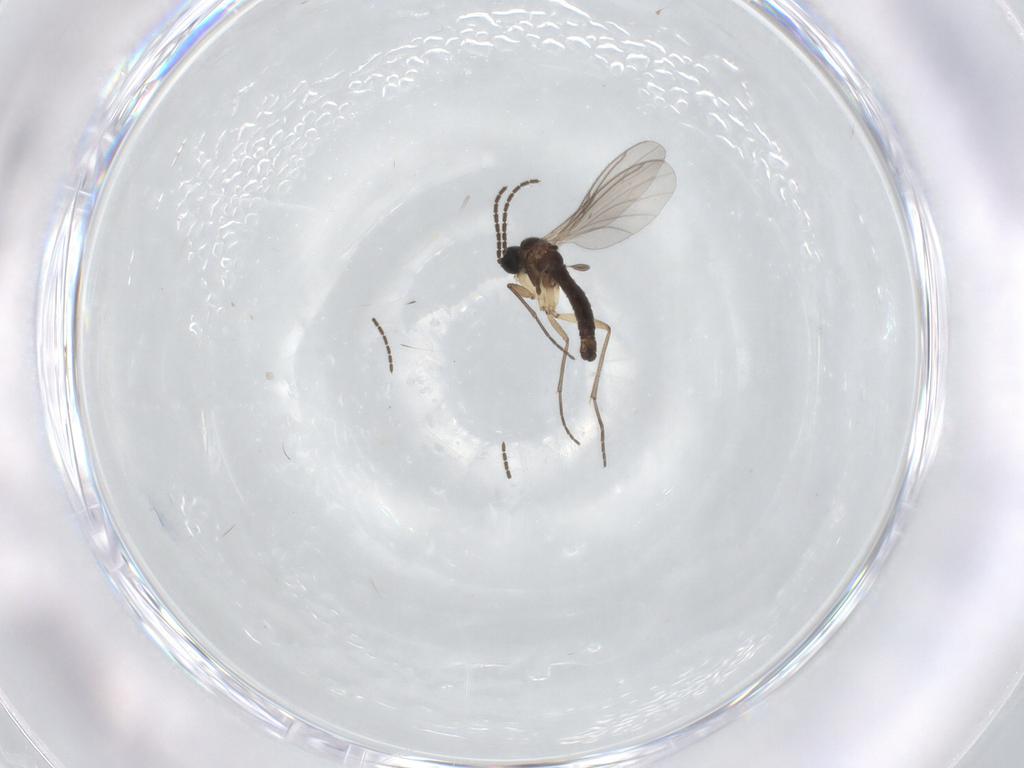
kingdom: Animalia
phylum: Arthropoda
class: Insecta
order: Diptera
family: Sciaridae
